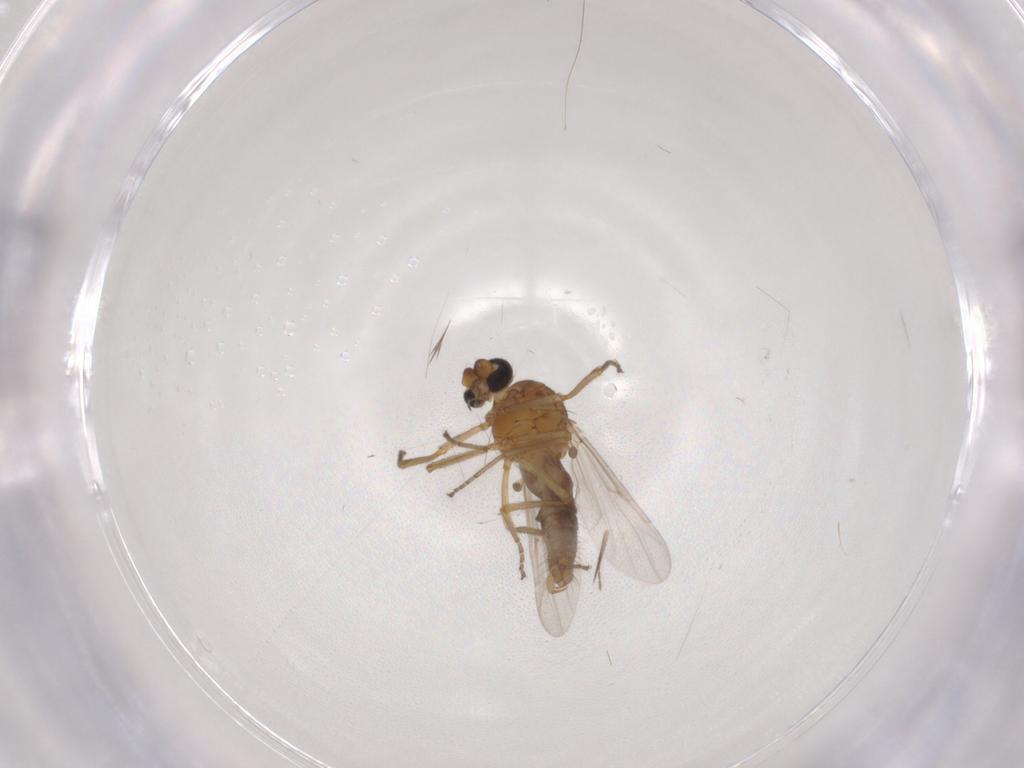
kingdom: Animalia
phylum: Arthropoda
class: Insecta
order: Diptera
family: Ceratopogonidae
